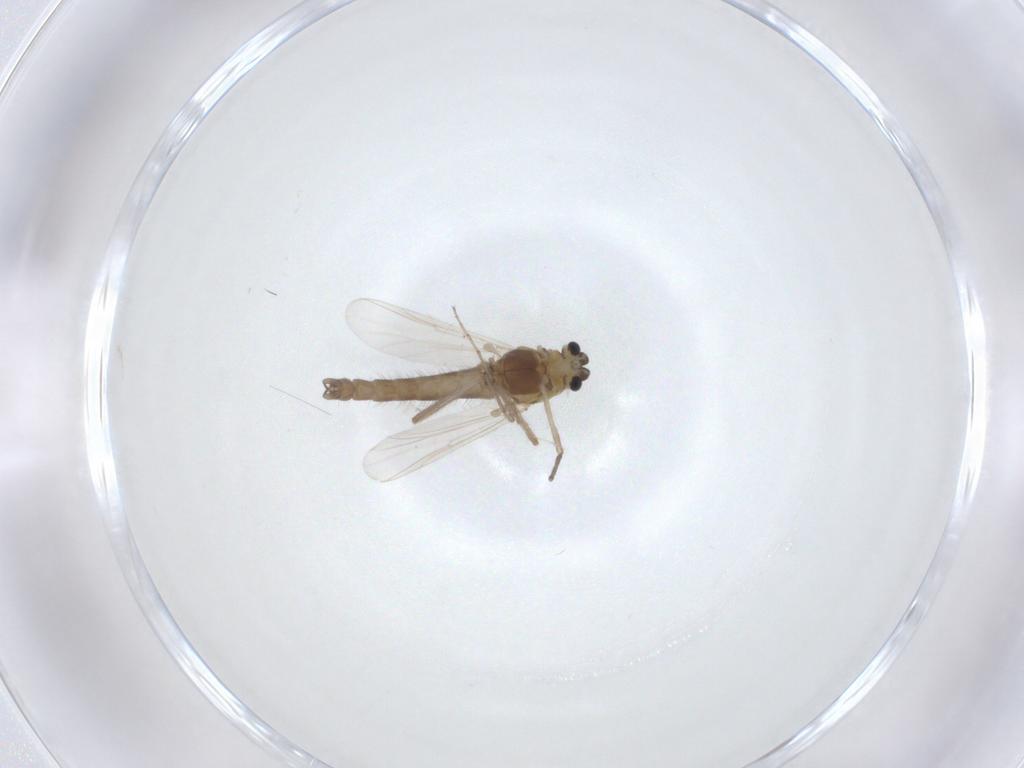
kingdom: Animalia
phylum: Arthropoda
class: Insecta
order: Diptera
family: Chironomidae
